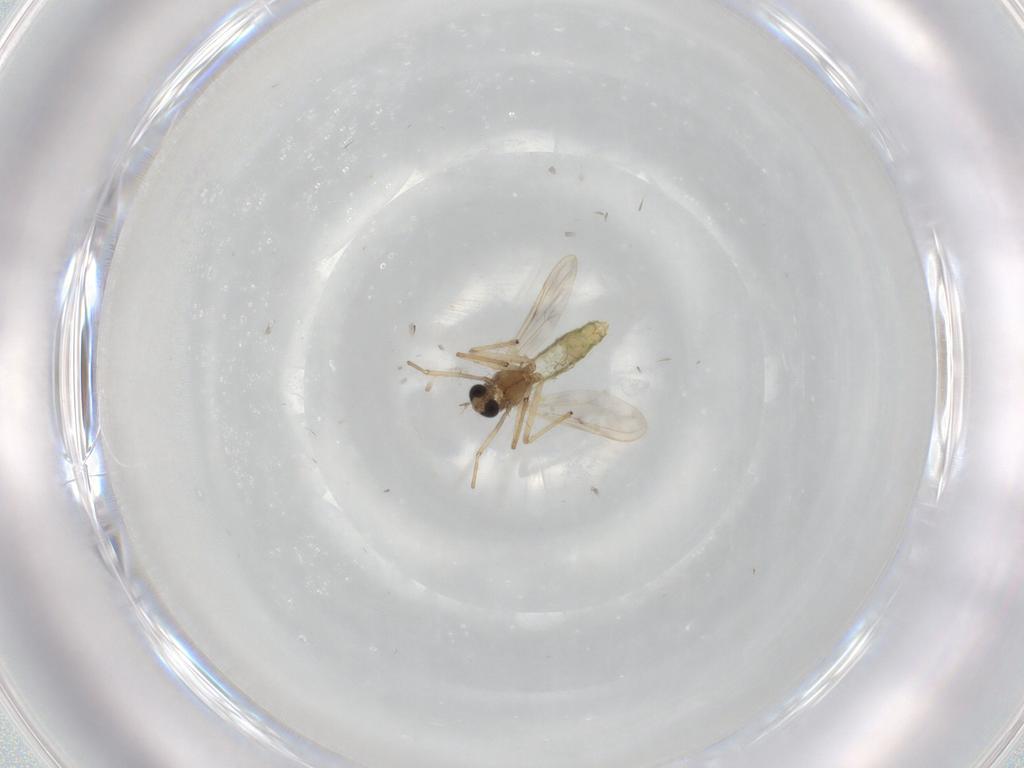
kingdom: Animalia
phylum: Arthropoda
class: Insecta
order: Diptera
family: Chironomidae
